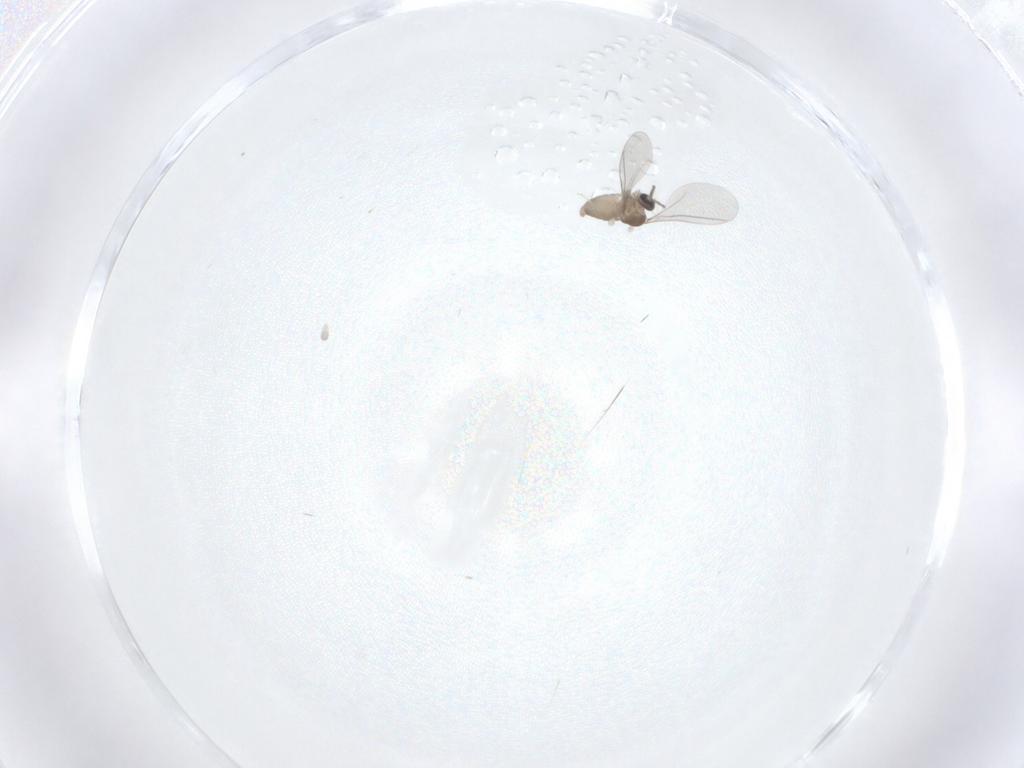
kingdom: Animalia
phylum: Arthropoda
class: Insecta
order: Diptera
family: Cecidomyiidae
